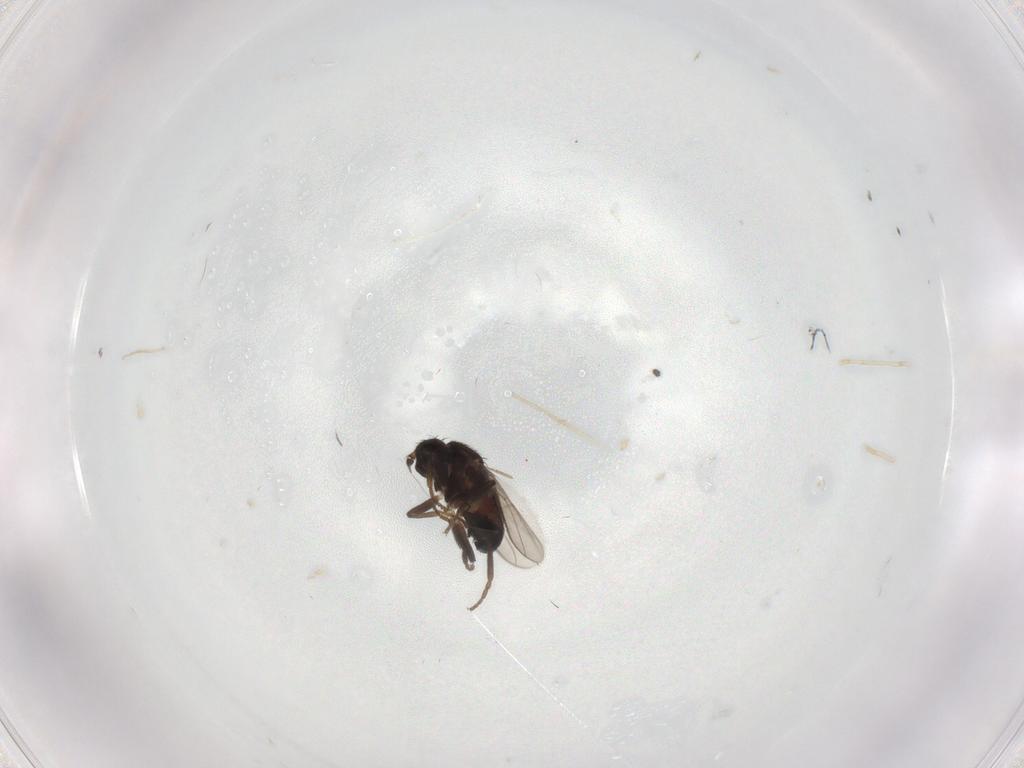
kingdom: Animalia
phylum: Arthropoda
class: Insecta
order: Diptera
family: Sphaeroceridae
